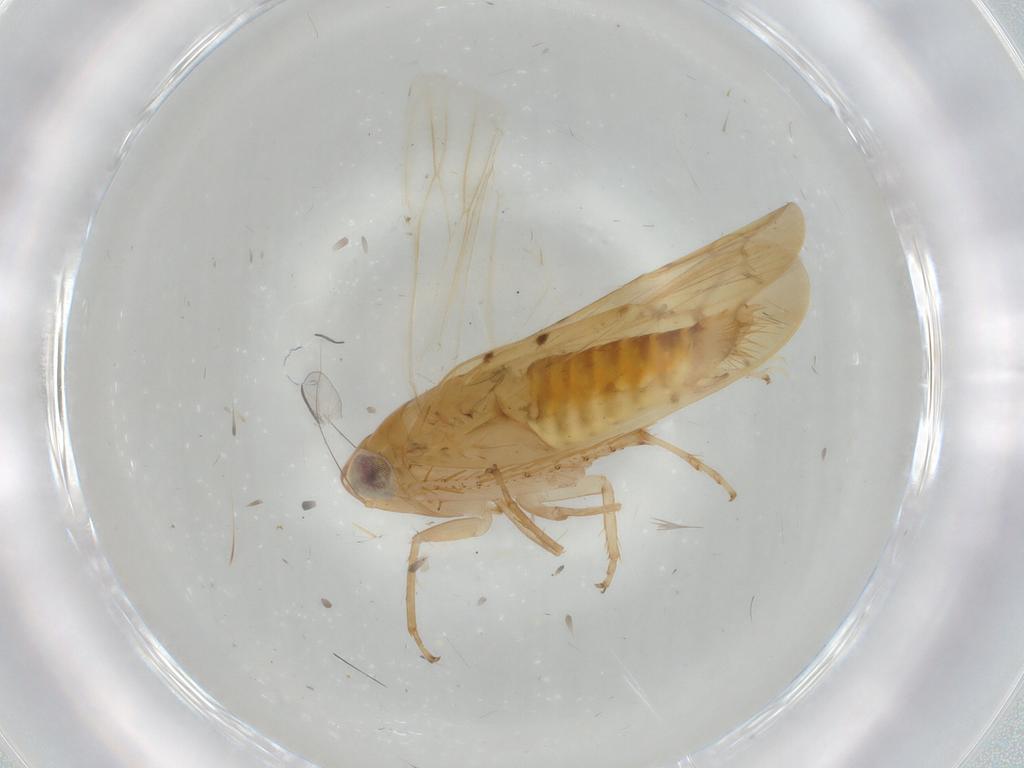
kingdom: Animalia
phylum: Arthropoda
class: Insecta
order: Hemiptera
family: Cicadellidae
